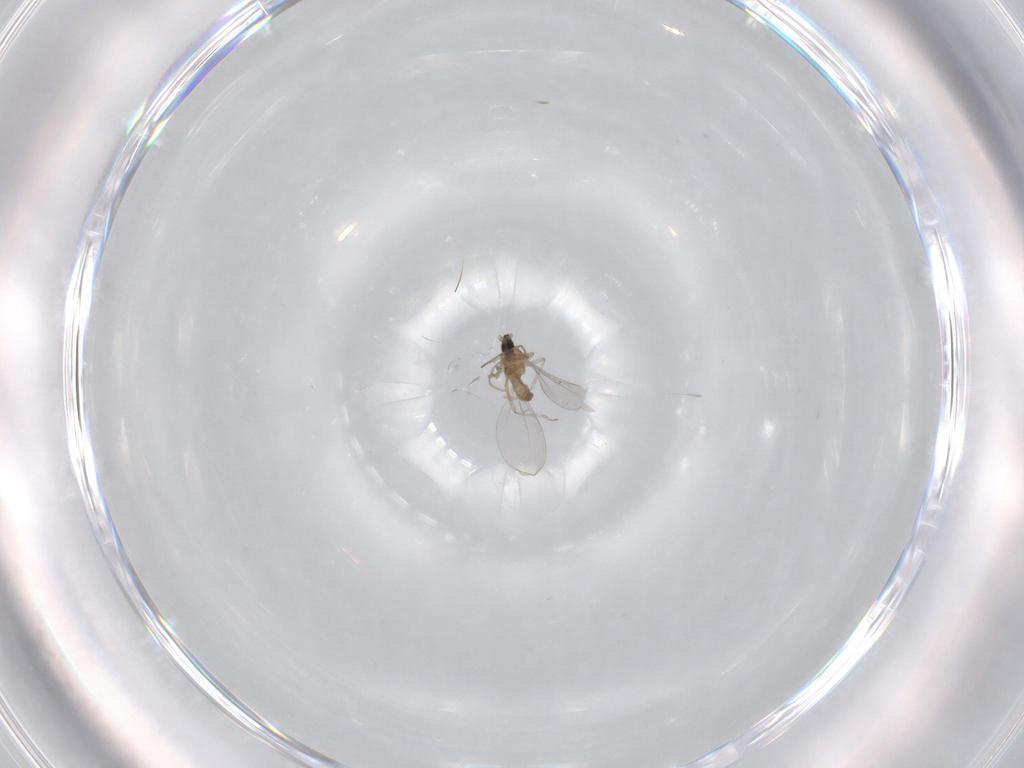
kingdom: Animalia
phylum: Arthropoda
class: Insecta
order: Diptera
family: Cecidomyiidae
